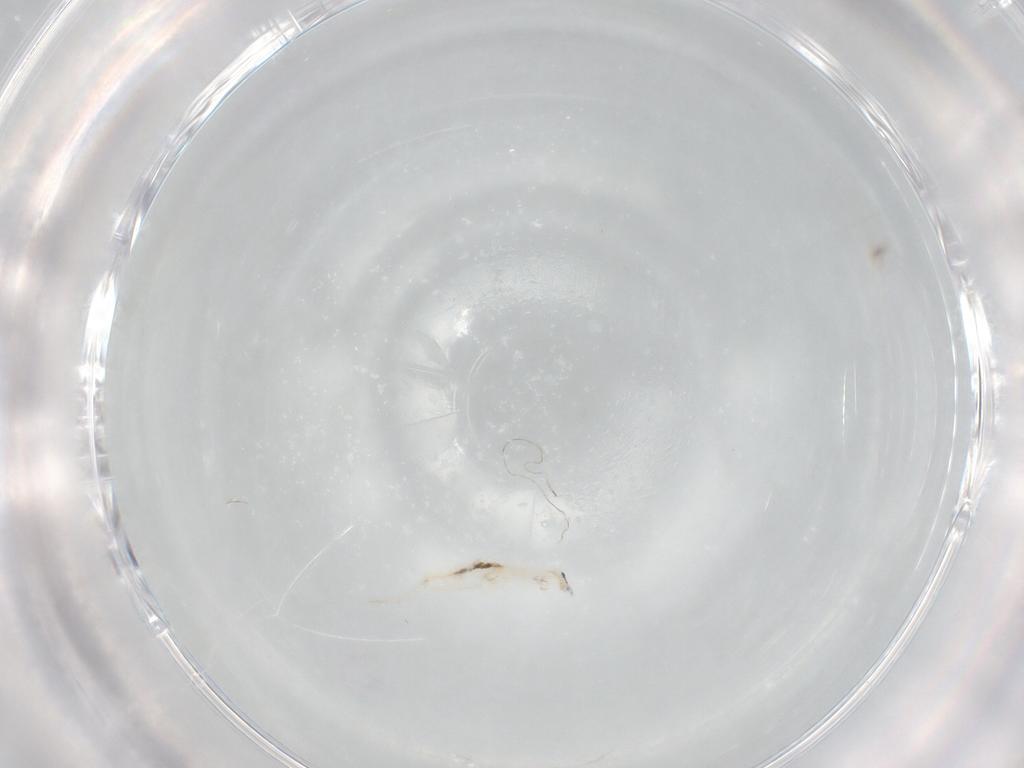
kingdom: Animalia
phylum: Arthropoda
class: Collembola
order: Entomobryomorpha
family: Entomobryidae
